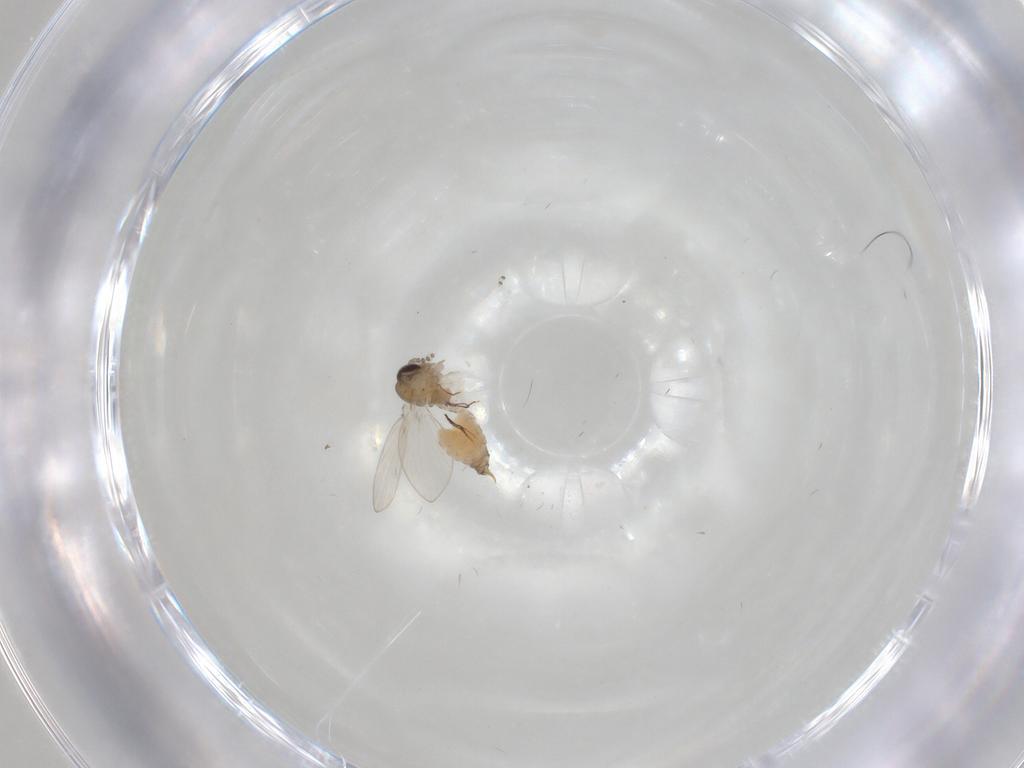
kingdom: Animalia
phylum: Arthropoda
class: Insecta
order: Diptera
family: Psychodidae
